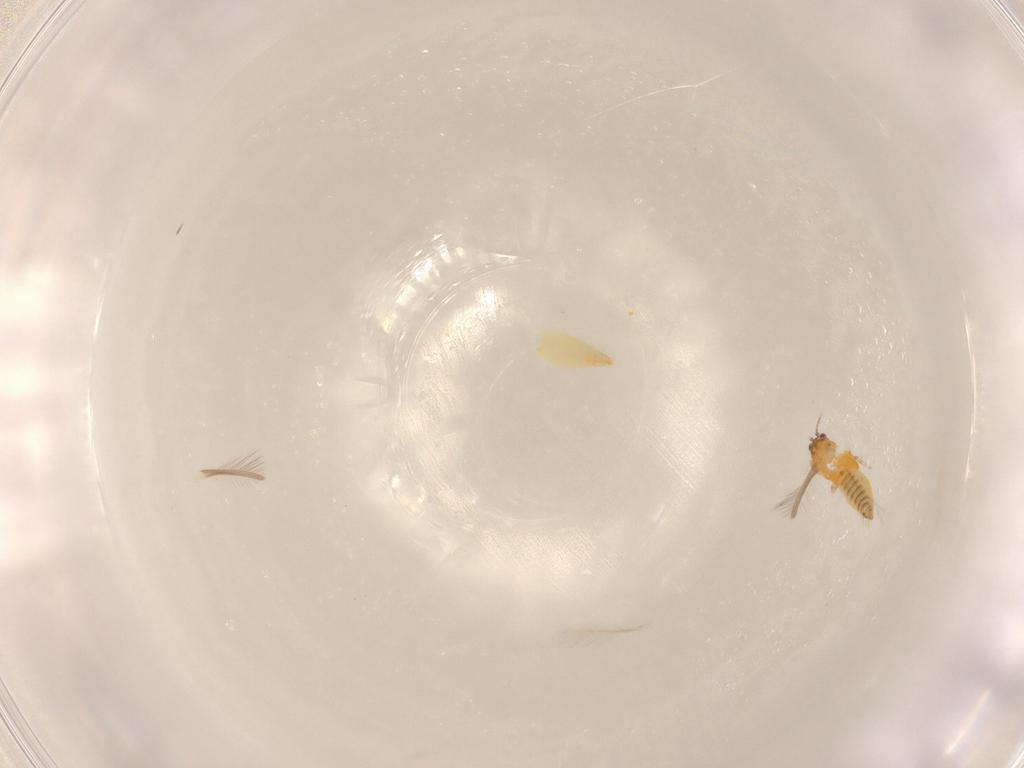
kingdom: Animalia
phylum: Arthropoda
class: Insecta
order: Thysanoptera
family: Thripidae
